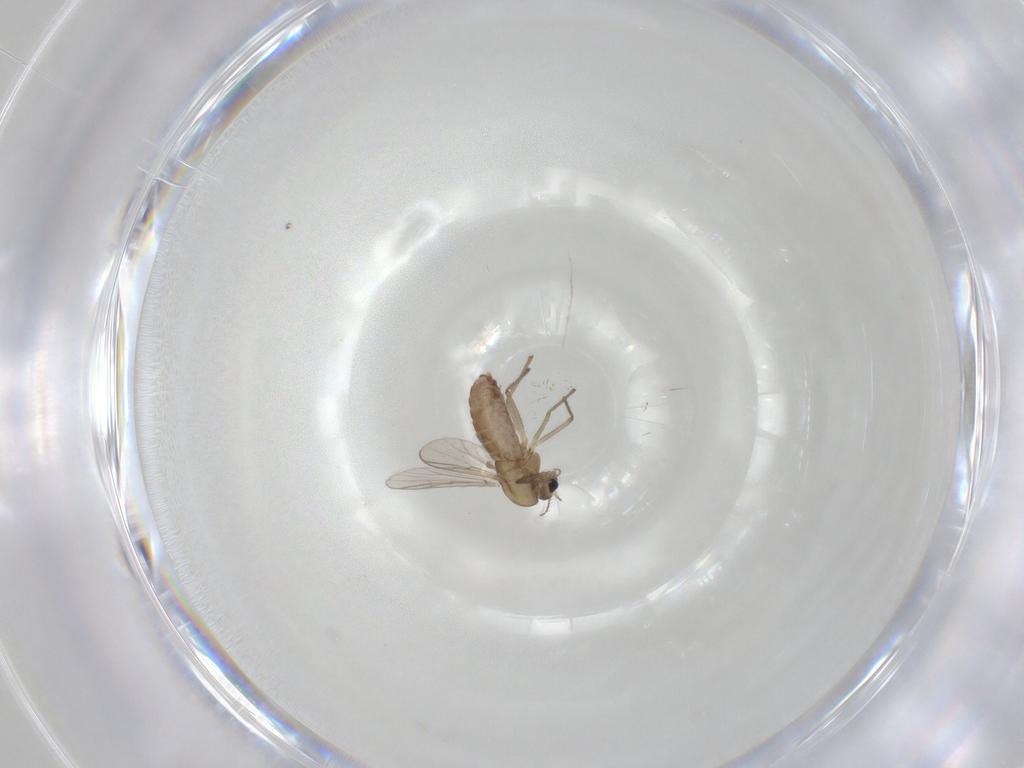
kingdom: Animalia
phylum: Arthropoda
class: Insecta
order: Diptera
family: Chironomidae
